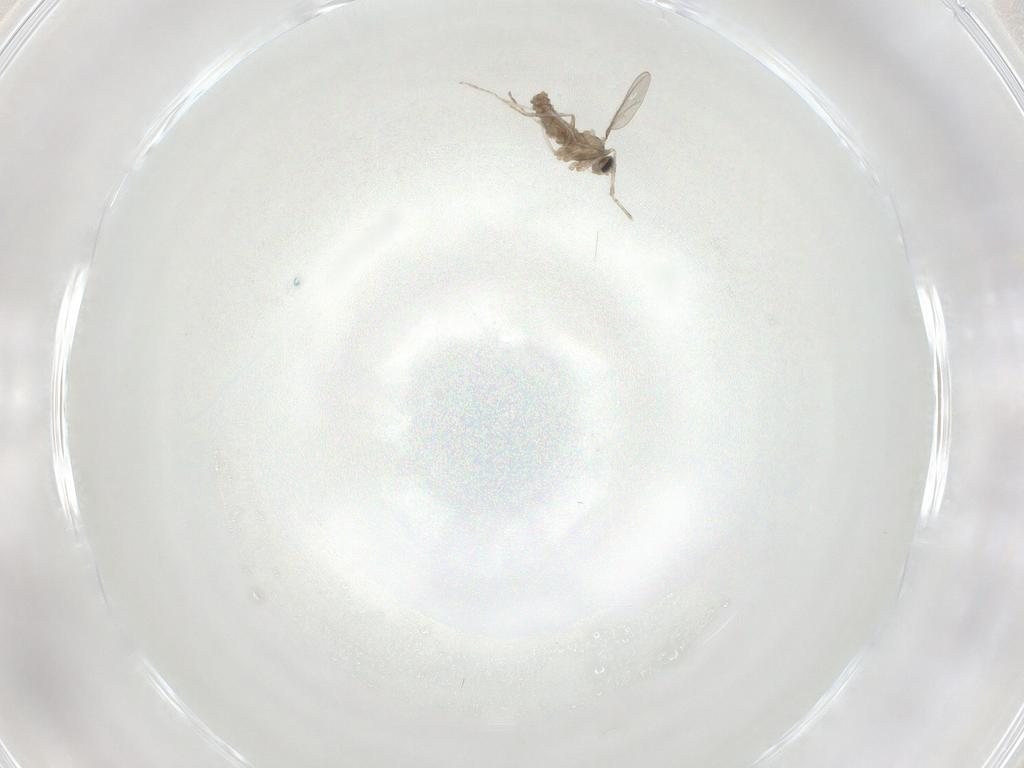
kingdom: Animalia
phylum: Arthropoda
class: Insecta
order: Diptera
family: Cecidomyiidae
